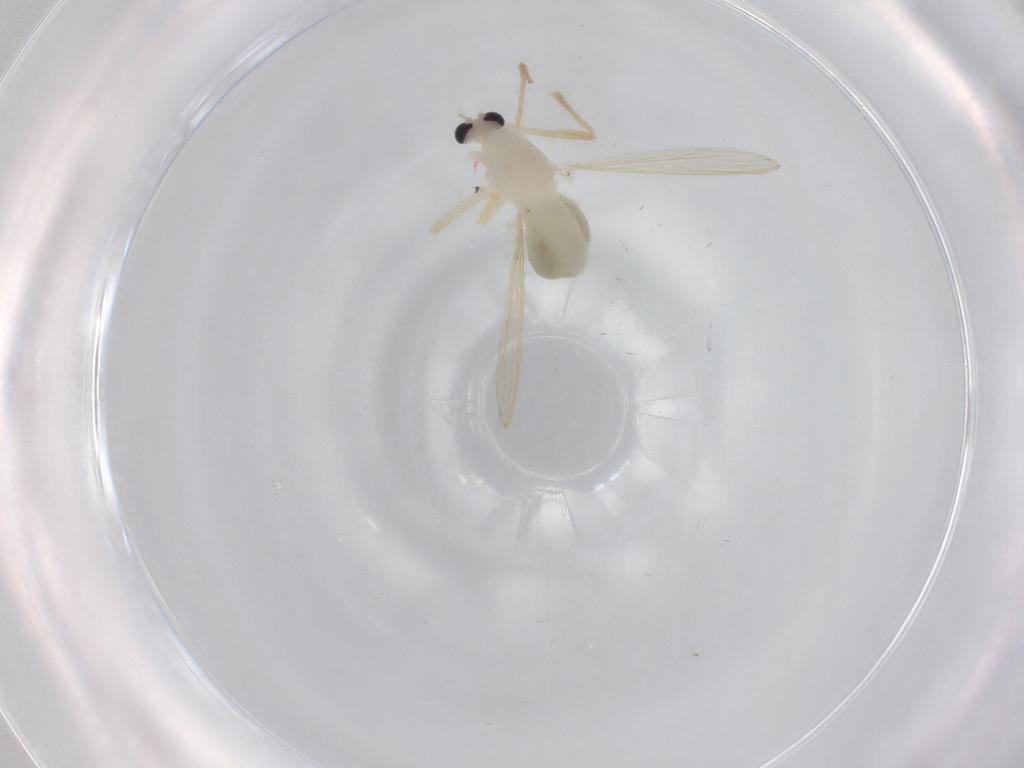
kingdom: Animalia
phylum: Arthropoda
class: Insecta
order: Diptera
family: Chironomidae
